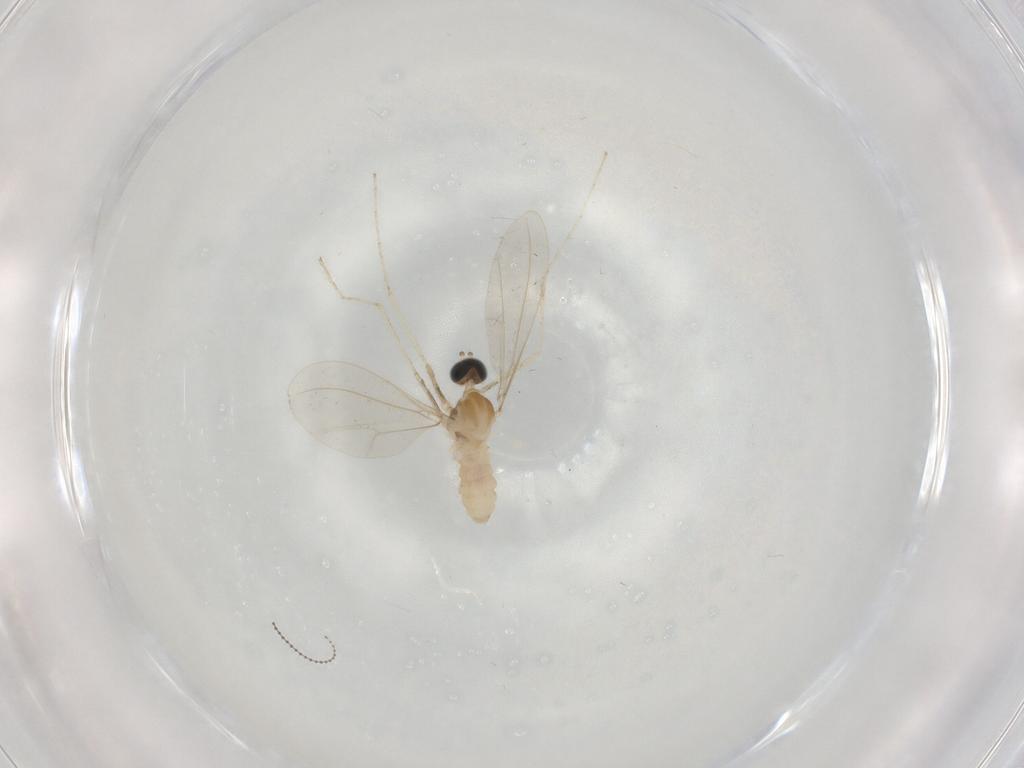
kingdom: Animalia
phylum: Arthropoda
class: Insecta
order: Diptera
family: Cecidomyiidae
